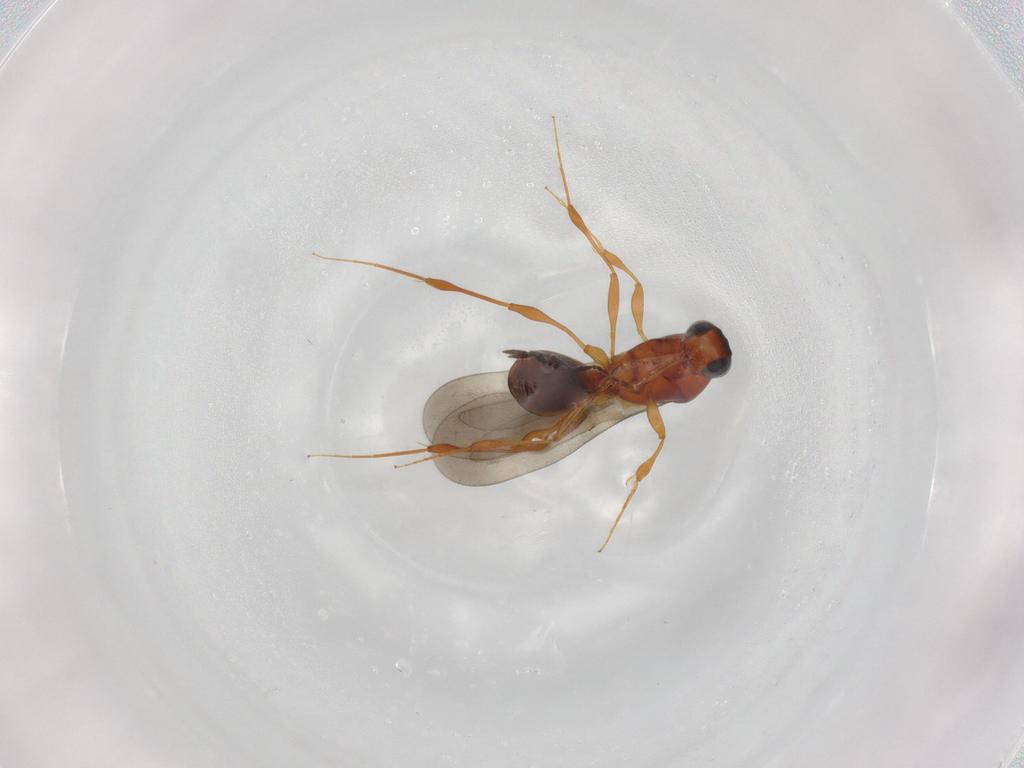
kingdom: Animalia
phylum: Arthropoda
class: Insecta
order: Hymenoptera
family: Platygastridae
